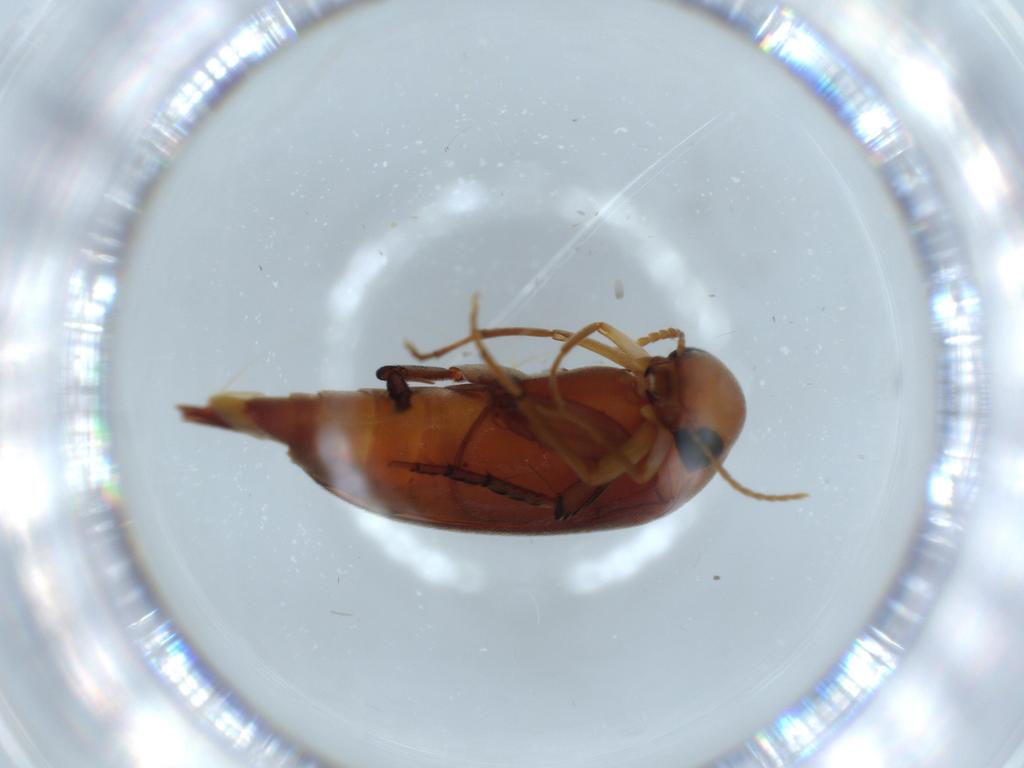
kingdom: Animalia
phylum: Arthropoda
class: Insecta
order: Coleoptera
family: Mordellidae
